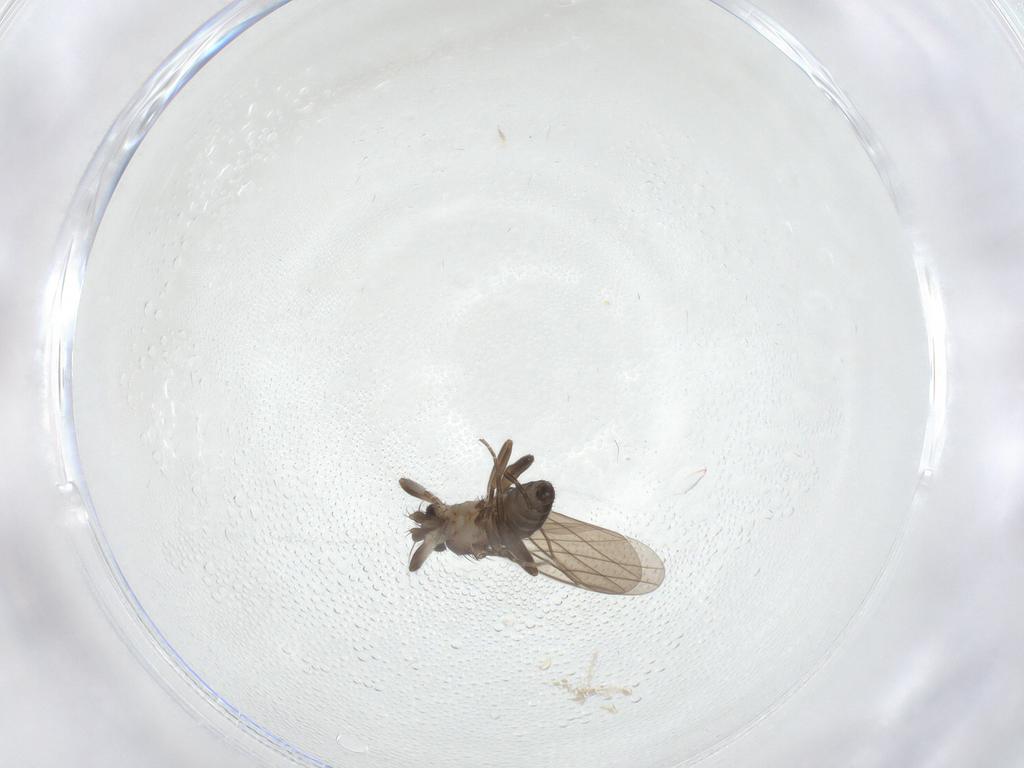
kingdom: Animalia
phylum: Arthropoda
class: Insecta
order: Diptera
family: Phoridae
